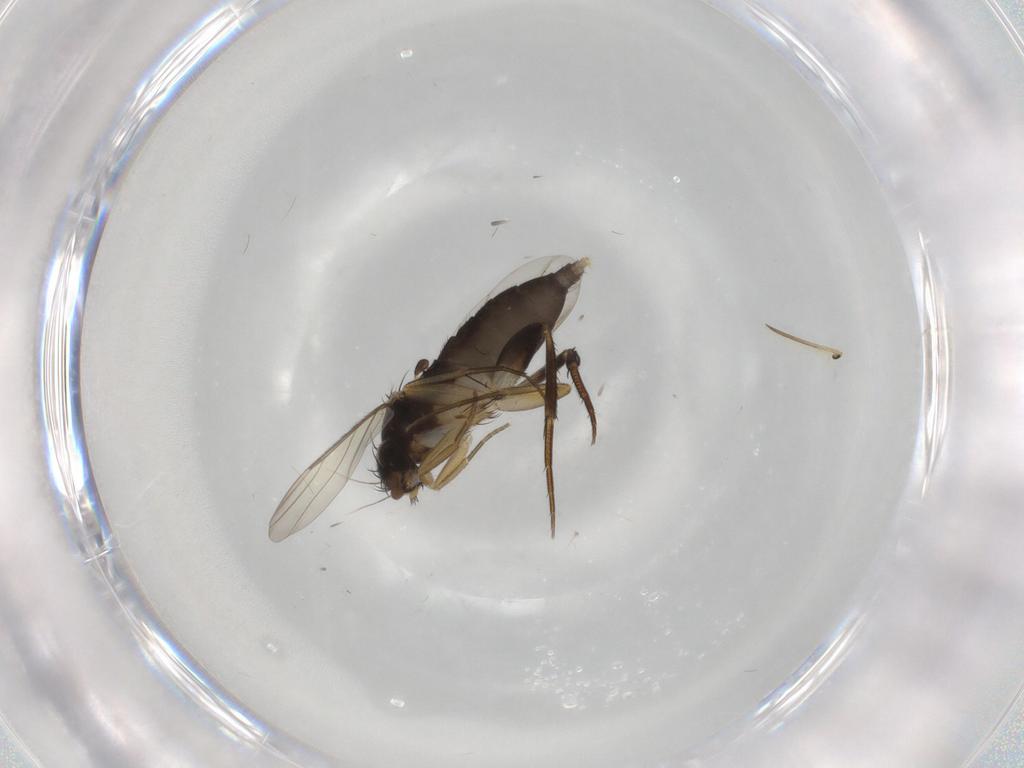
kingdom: Animalia
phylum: Arthropoda
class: Insecta
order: Diptera
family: Phoridae
